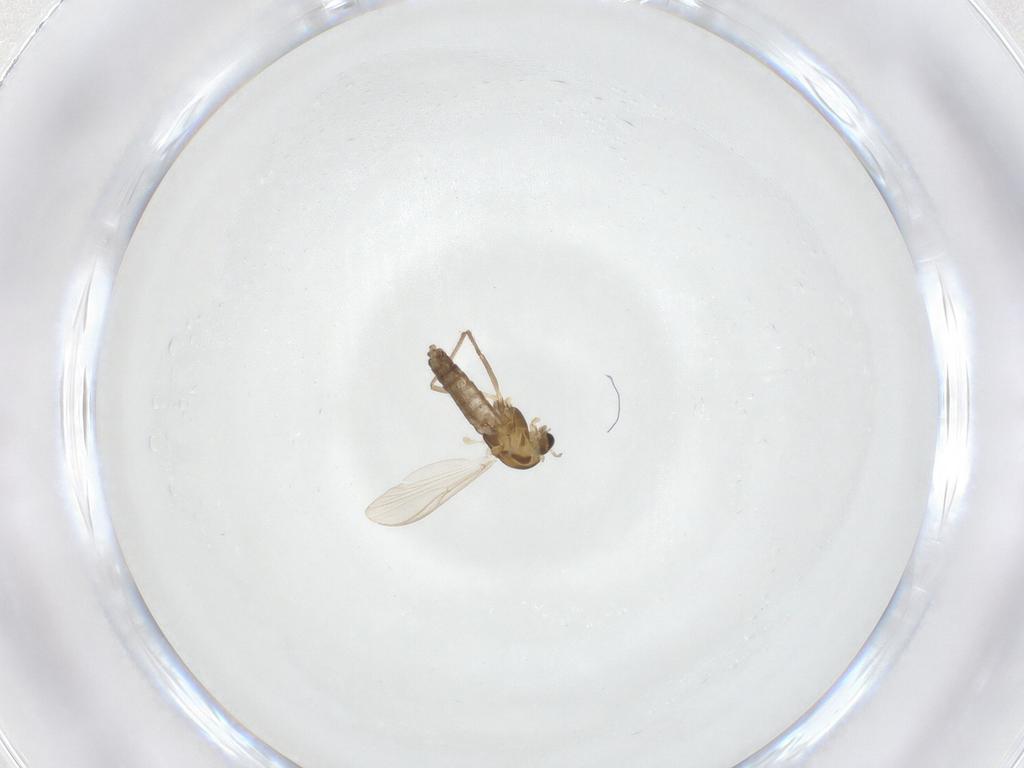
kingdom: Animalia
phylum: Arthropoda
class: Insecta
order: Diptera
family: Chironomidae
